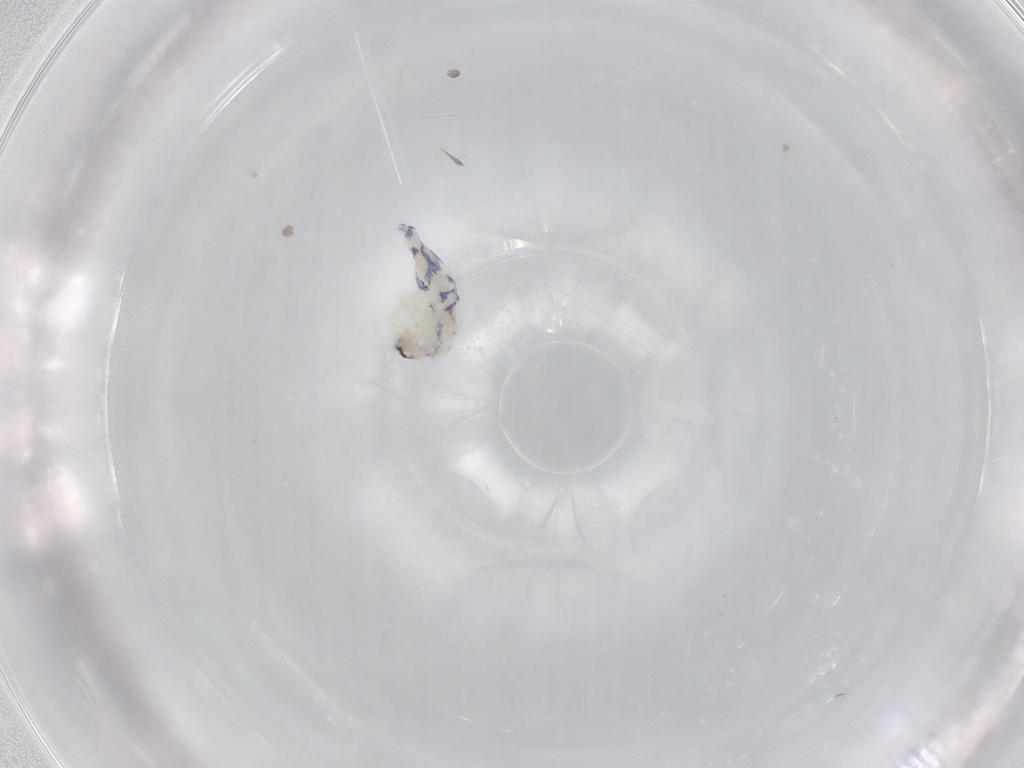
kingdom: Animalia
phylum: Arthropoda
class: Collembola
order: Entomobryomorpha
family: Entomobryidae
